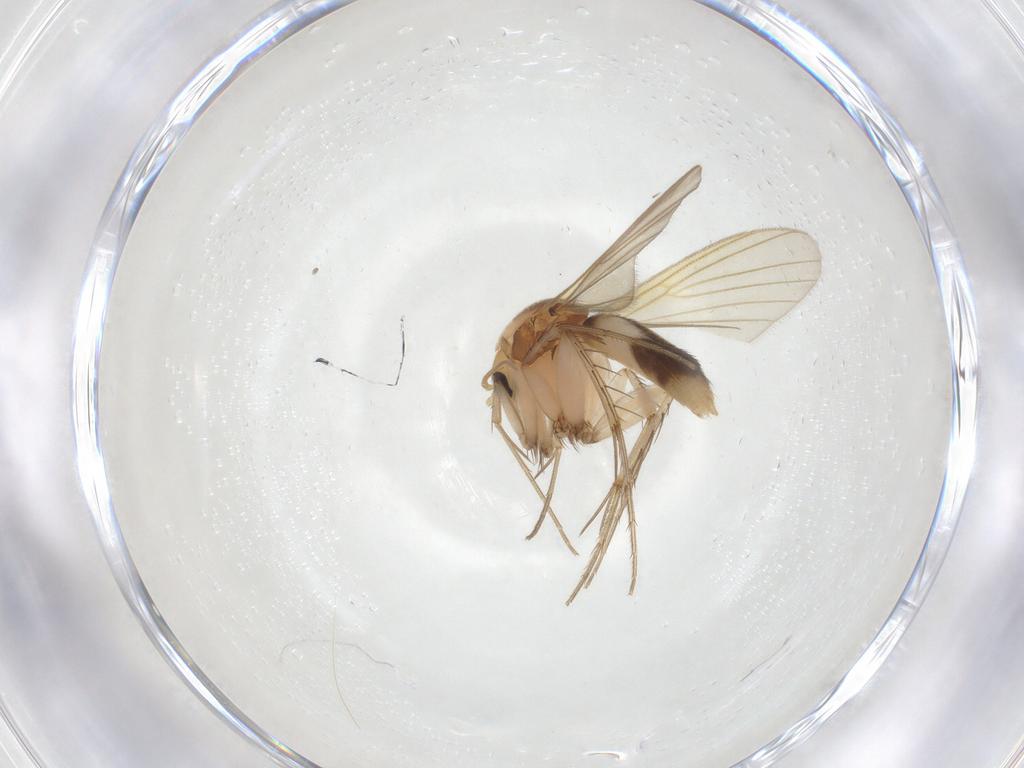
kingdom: Animalia
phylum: Arthropoda
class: Insecta
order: Diptera
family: Mycetophilidae
